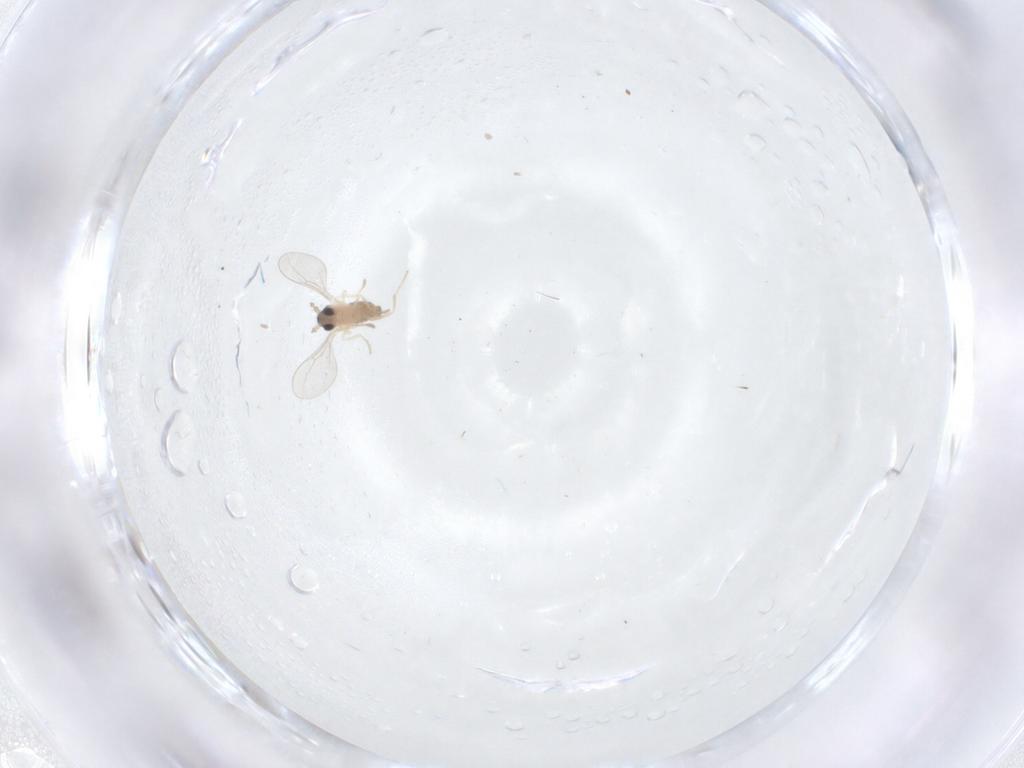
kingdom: Animalia
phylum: Arthropoda
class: Insecta
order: Diptera
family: Cecidomyiidae
